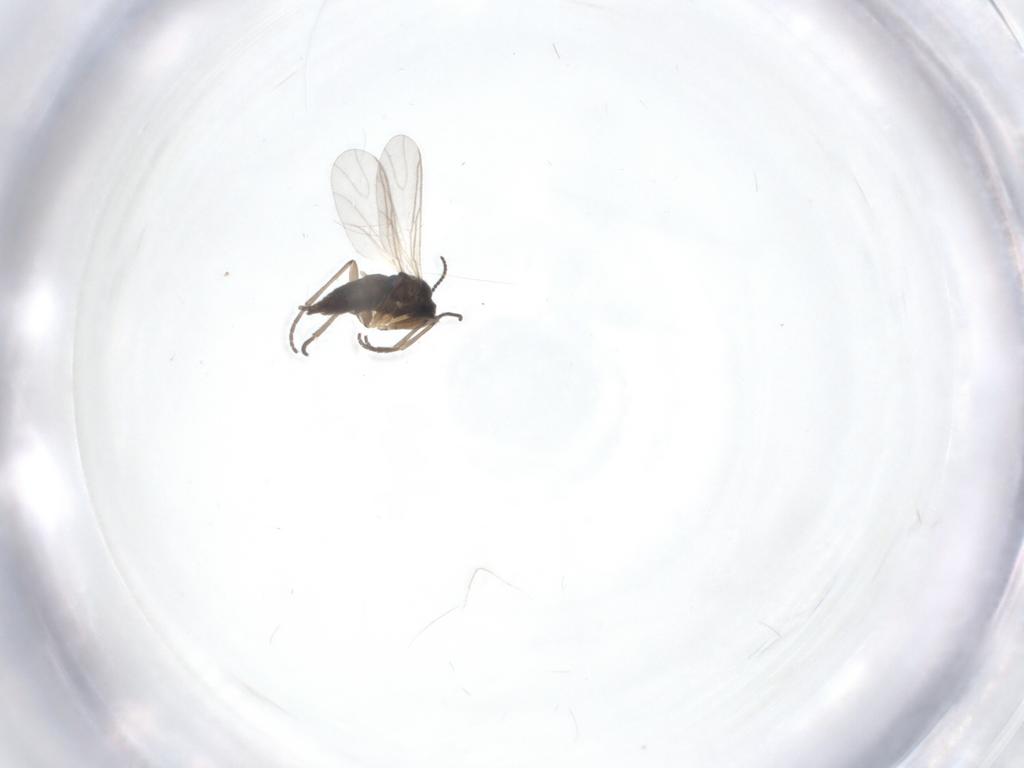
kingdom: Animalia
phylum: Arthropoda
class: Insecta
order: Diptera
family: Sciaridae
